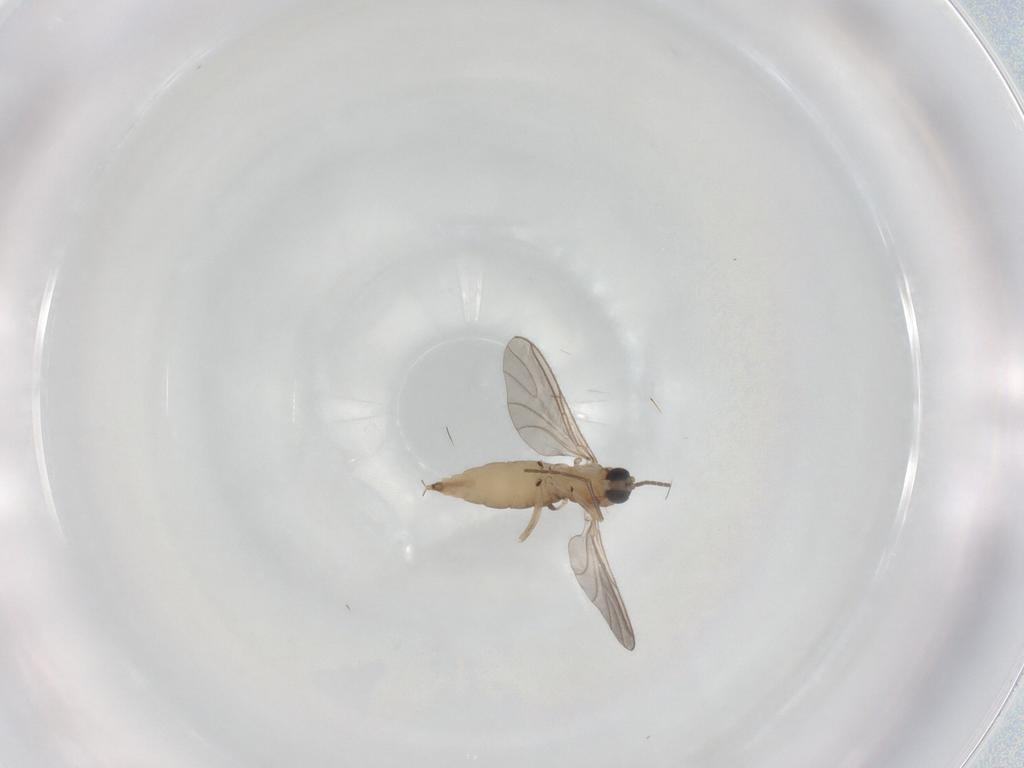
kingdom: Animalia
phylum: Arthropoda
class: Insecta
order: Diptera
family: Sciaridae
